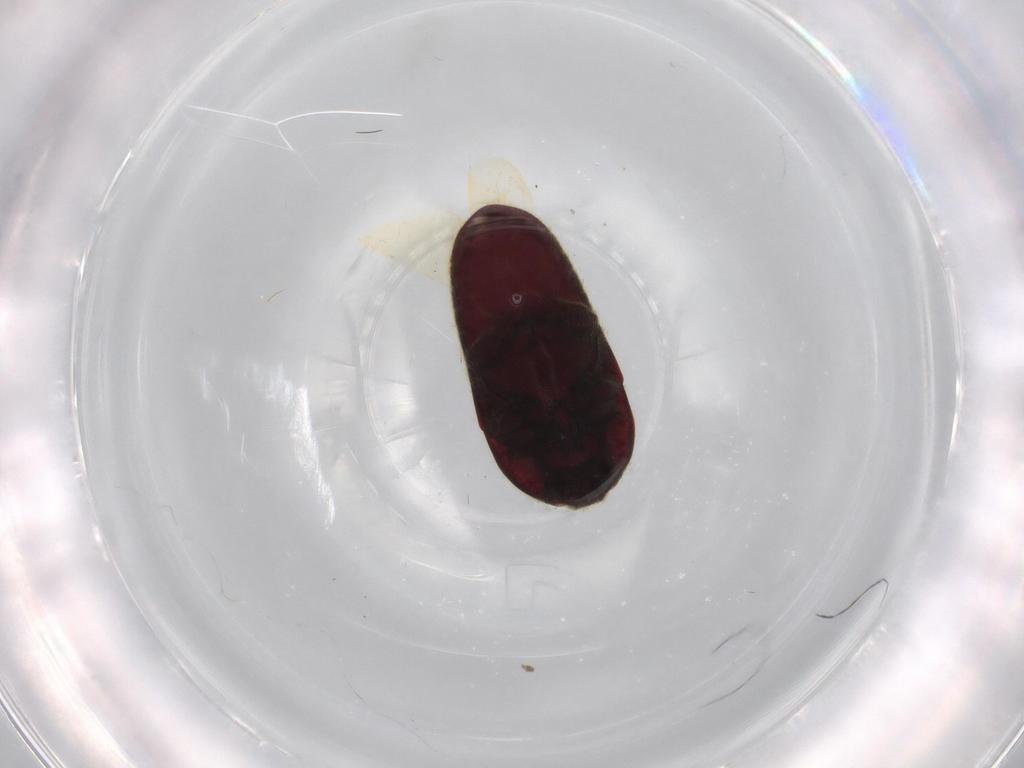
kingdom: Animalia
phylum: Arthropoda
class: Insecta
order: Coleoptera
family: Throscidae
